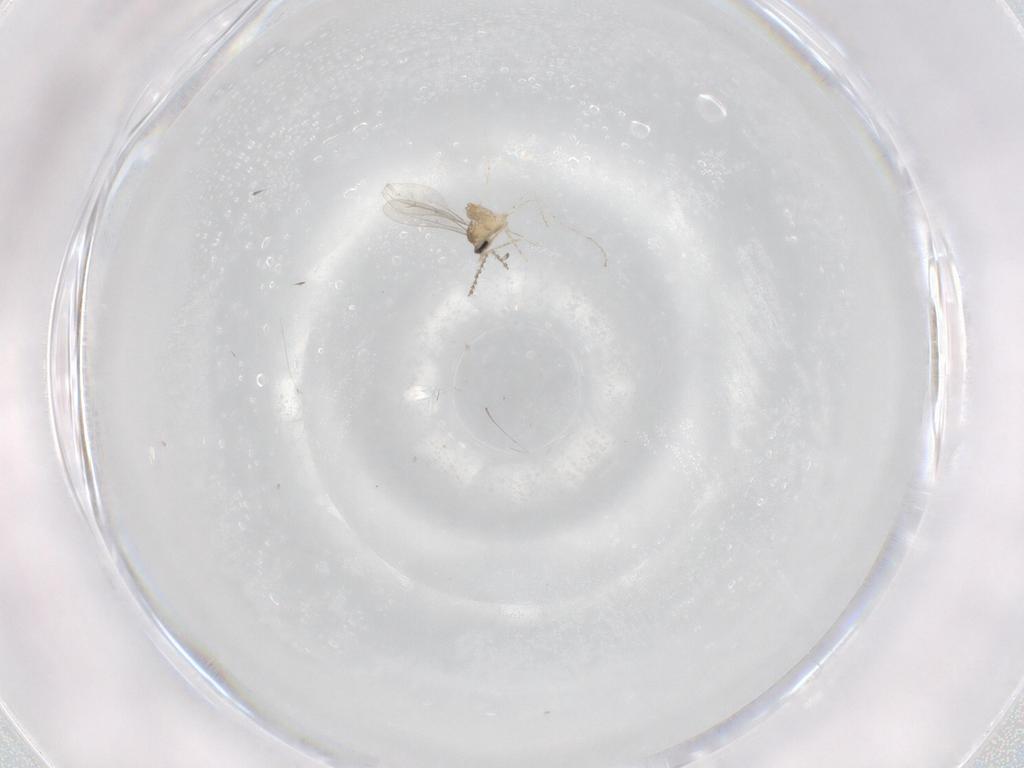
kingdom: Animalia
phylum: Arthropoda
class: Insecta
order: Diptera
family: Cecidomyiidae
